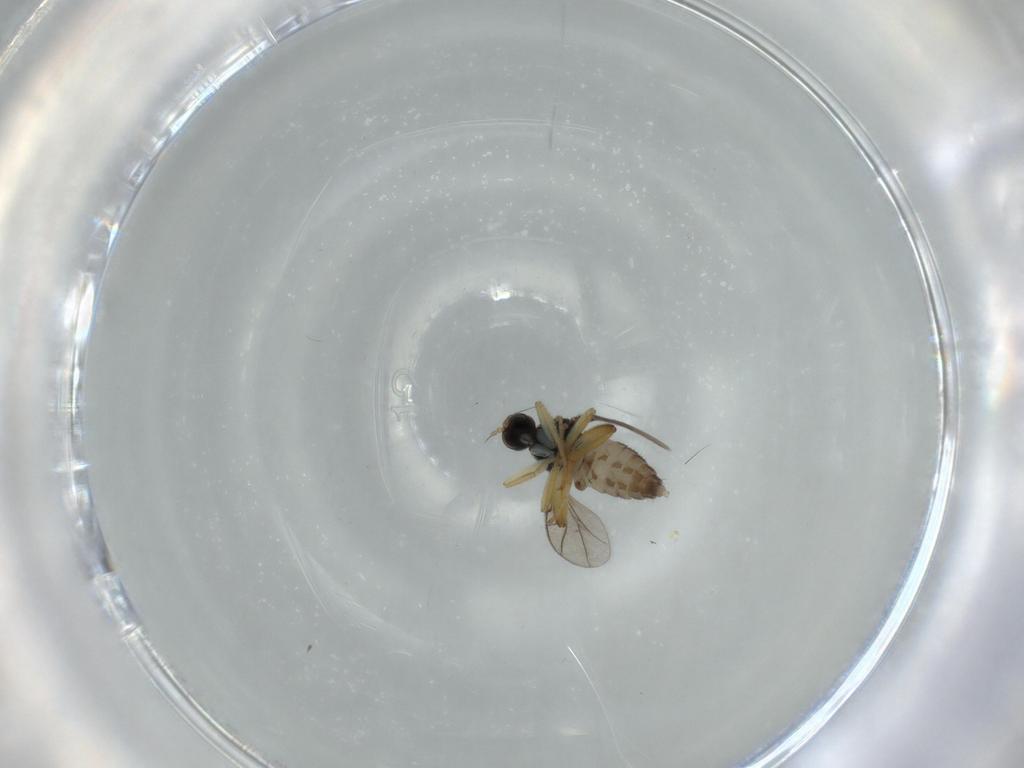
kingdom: Animalia
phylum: Arthropoda
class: Insecta
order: Diptera
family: Hybotidae
